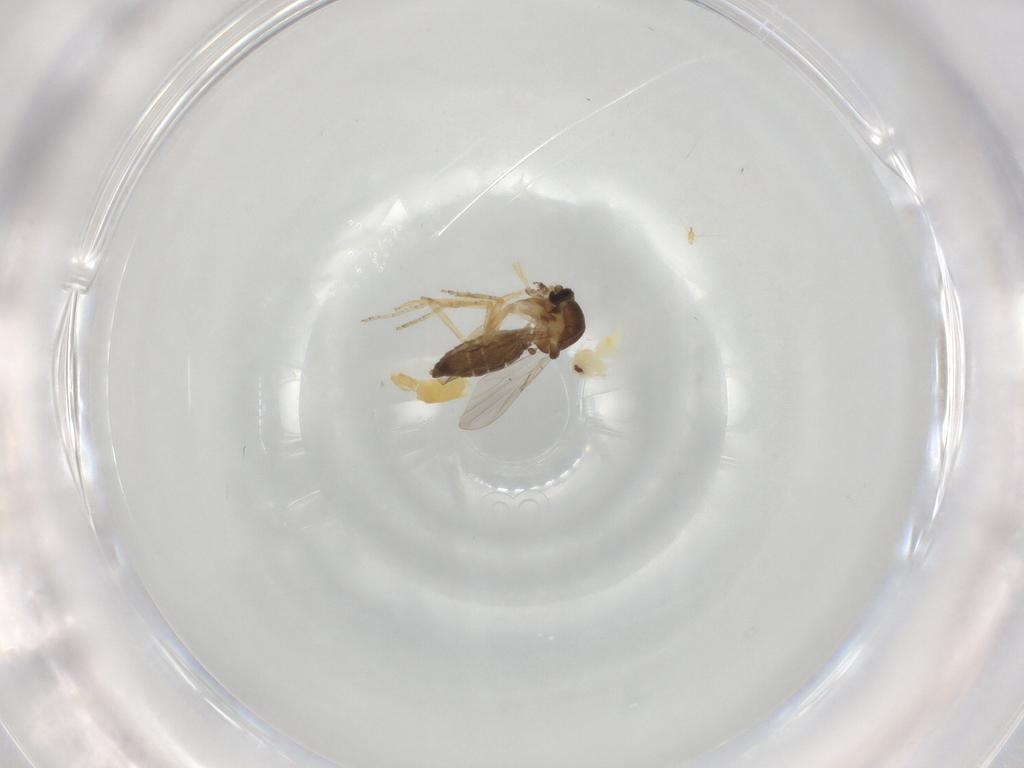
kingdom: Animalia
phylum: Arthropoda
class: Insecta
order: Diptera
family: Ceratopogonidae
